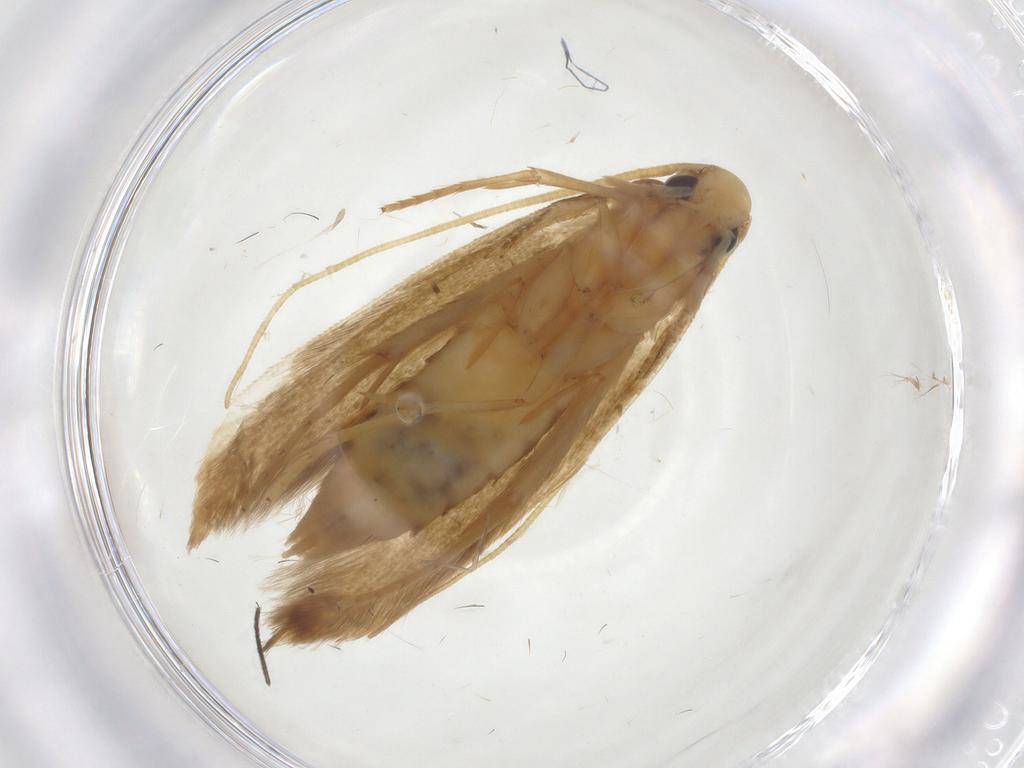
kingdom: Animalia
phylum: Arthropoda
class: Insecta
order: Lepidoptera
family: Tineidae
